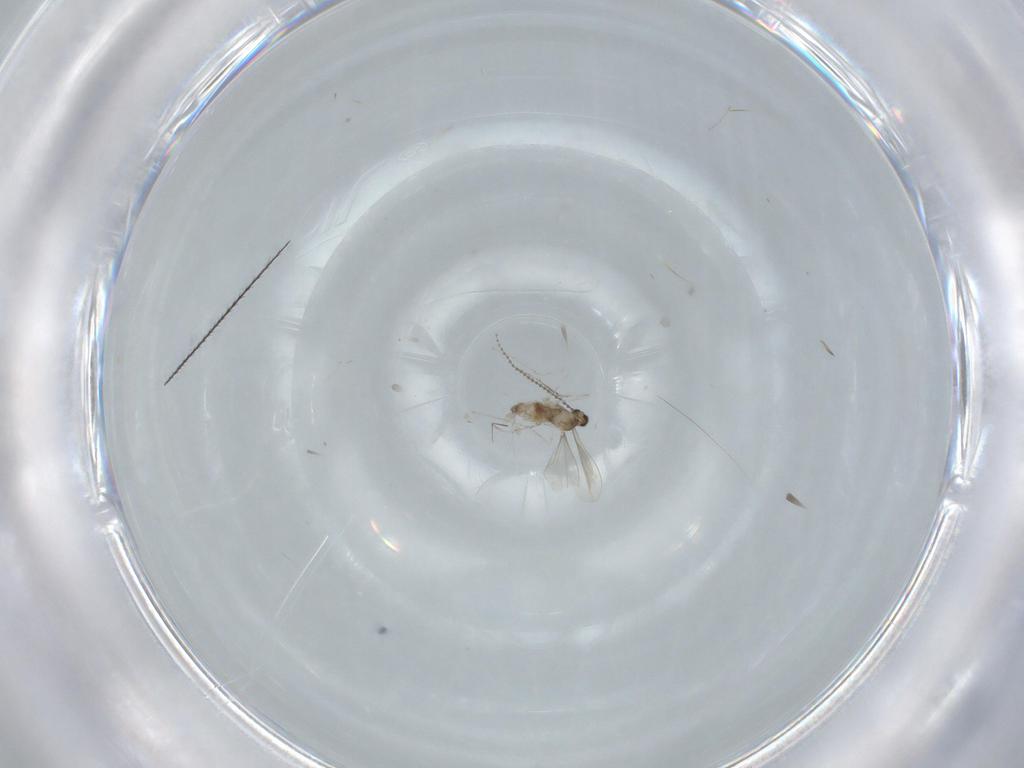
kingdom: Animalia
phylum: Arthropoda
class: Insecta
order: Diptera
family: Cecidomyiidae
